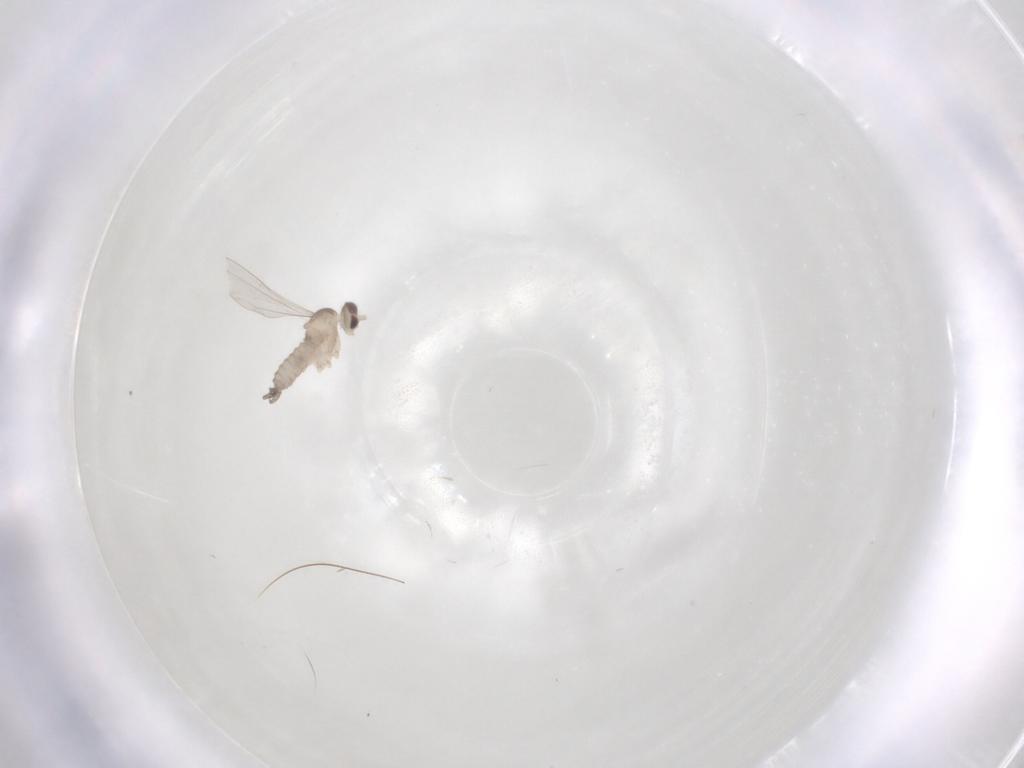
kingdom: Animalia
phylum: Arthropoda
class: Insecta
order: Diptera
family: Cecidomyiidae
